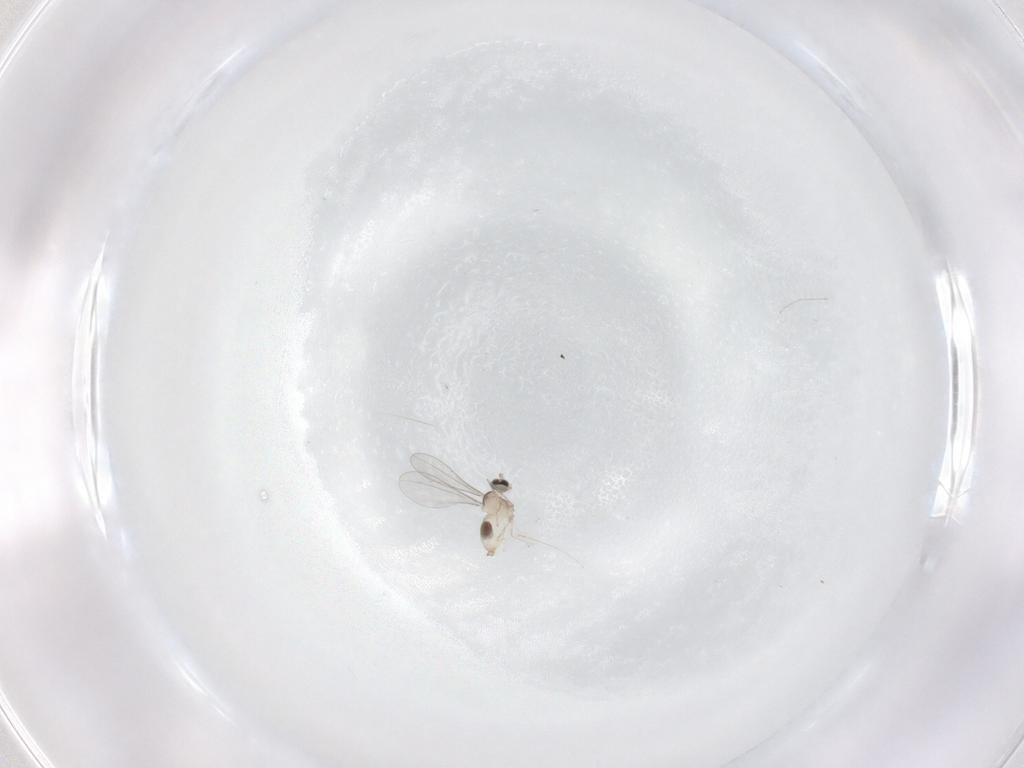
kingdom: Animalia
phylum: Arthropoda
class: Insecta
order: Diptera
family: Cecidomyiidae
